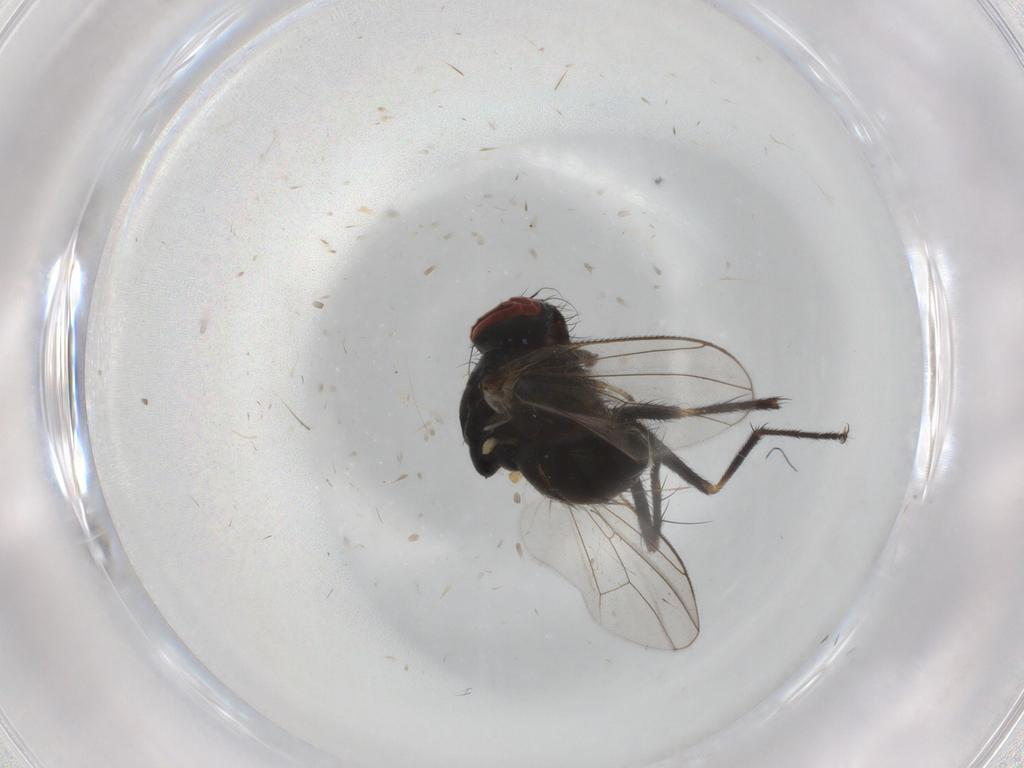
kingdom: Animalia
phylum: Arthropoda
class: Insecta
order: Diptera
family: Muscidae
